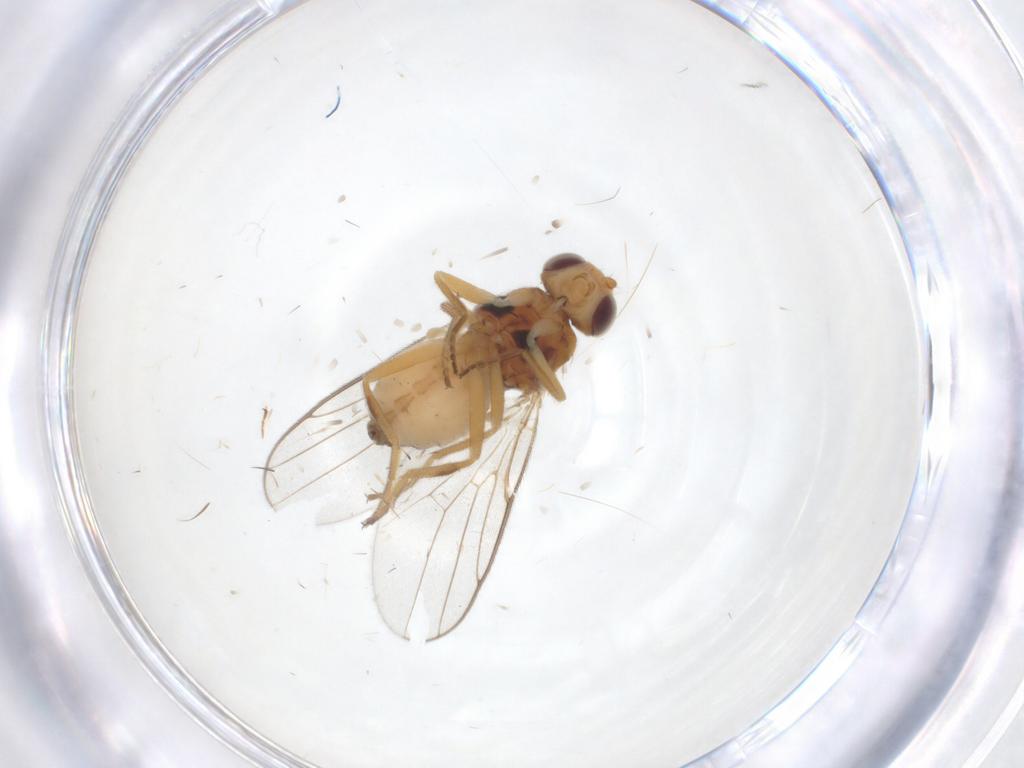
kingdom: Animalia
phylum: Arthropoda
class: Insecta
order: Diptera
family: Chloropidae
